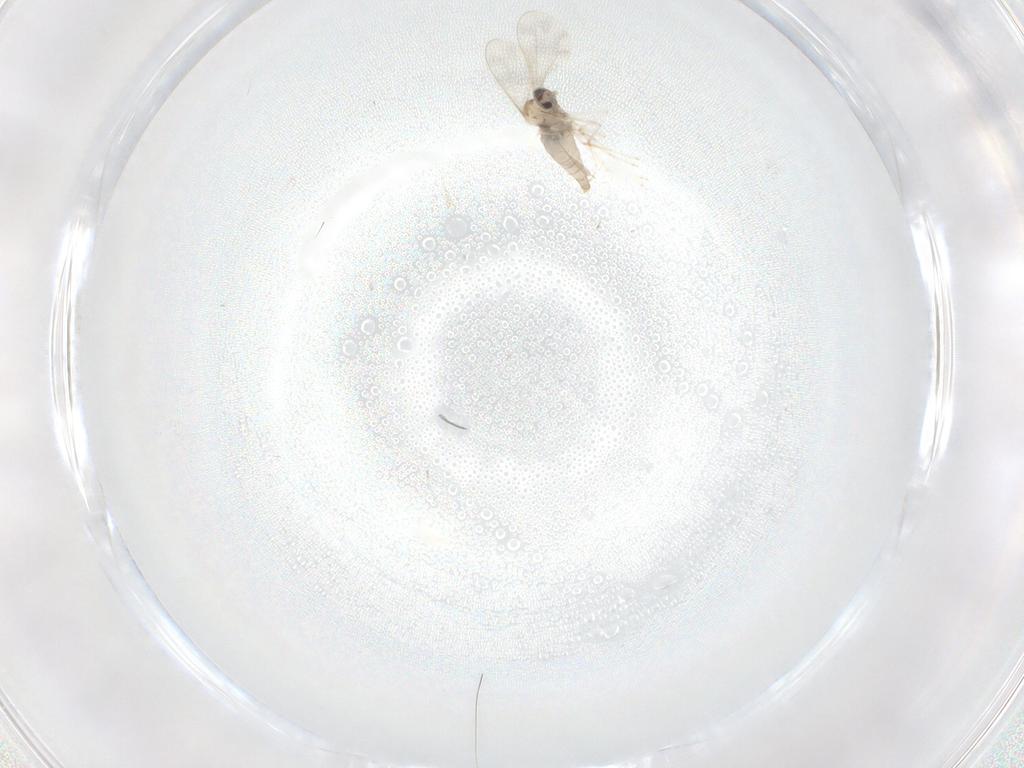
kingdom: Animalia
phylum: Arthropoda
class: Insecta
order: Diptera
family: Cecidomyiidae
